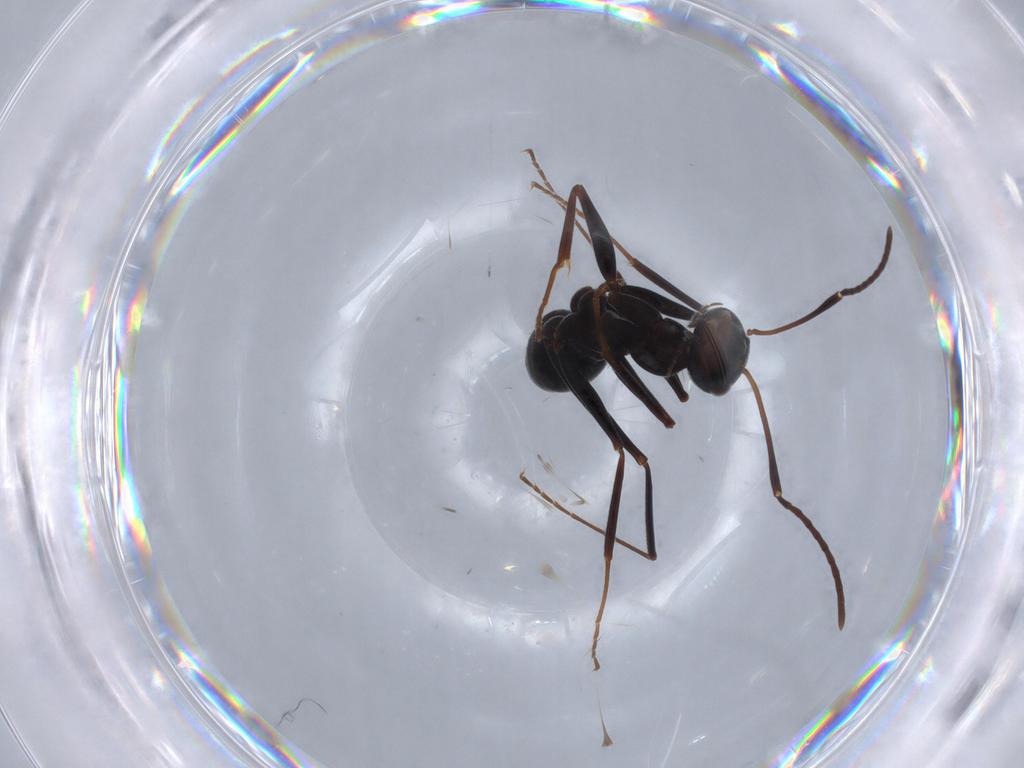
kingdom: Animalia
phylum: Arthropoda
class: Insecta
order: Hymenoptera
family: Formicidae
